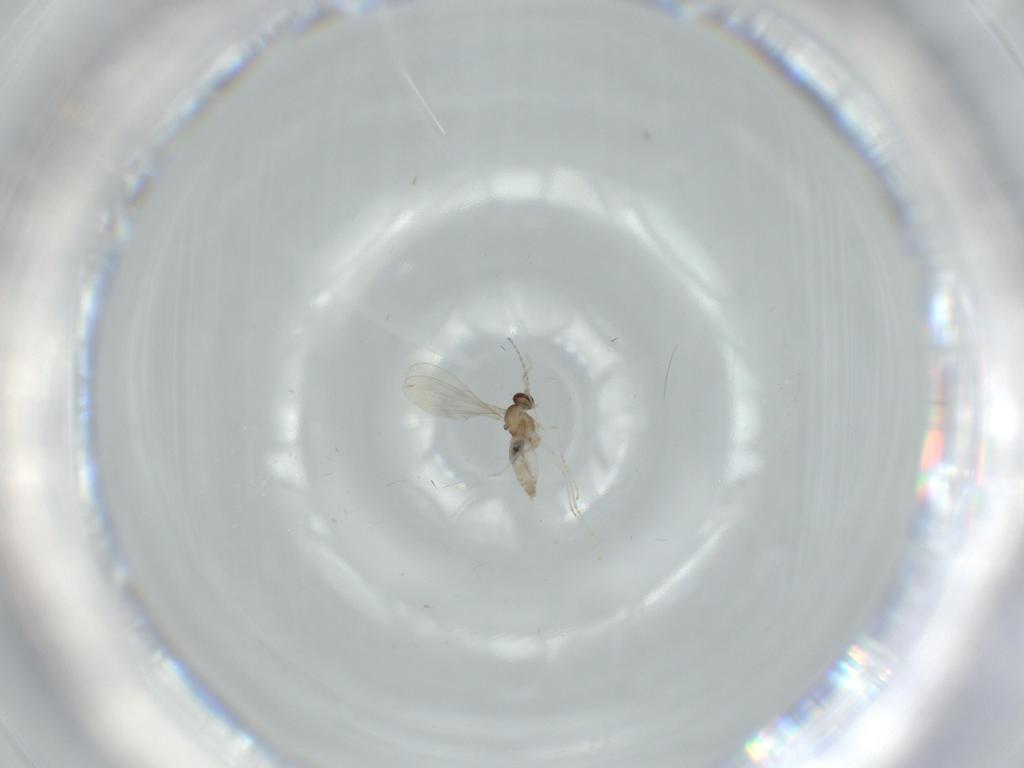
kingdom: Animalia
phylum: Arthropoda
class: Insecta
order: Diptera
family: Cecidomyiidae
